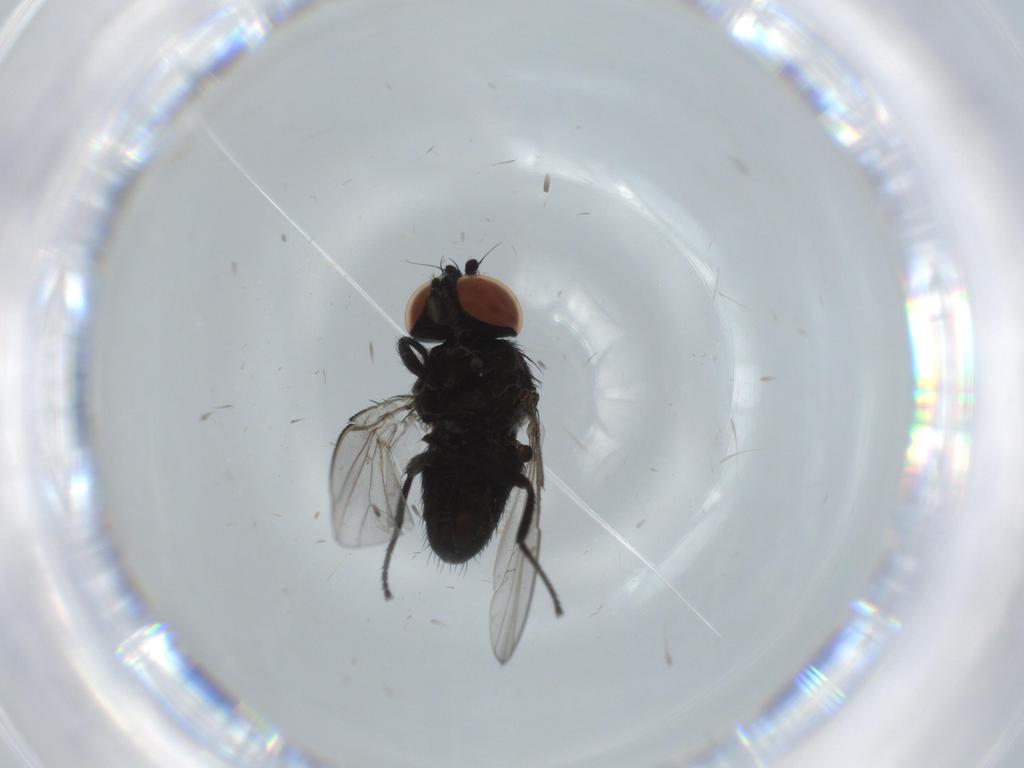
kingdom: Animalia
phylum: Arthropoda
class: Insecta
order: Diptera
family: Milichiidae
